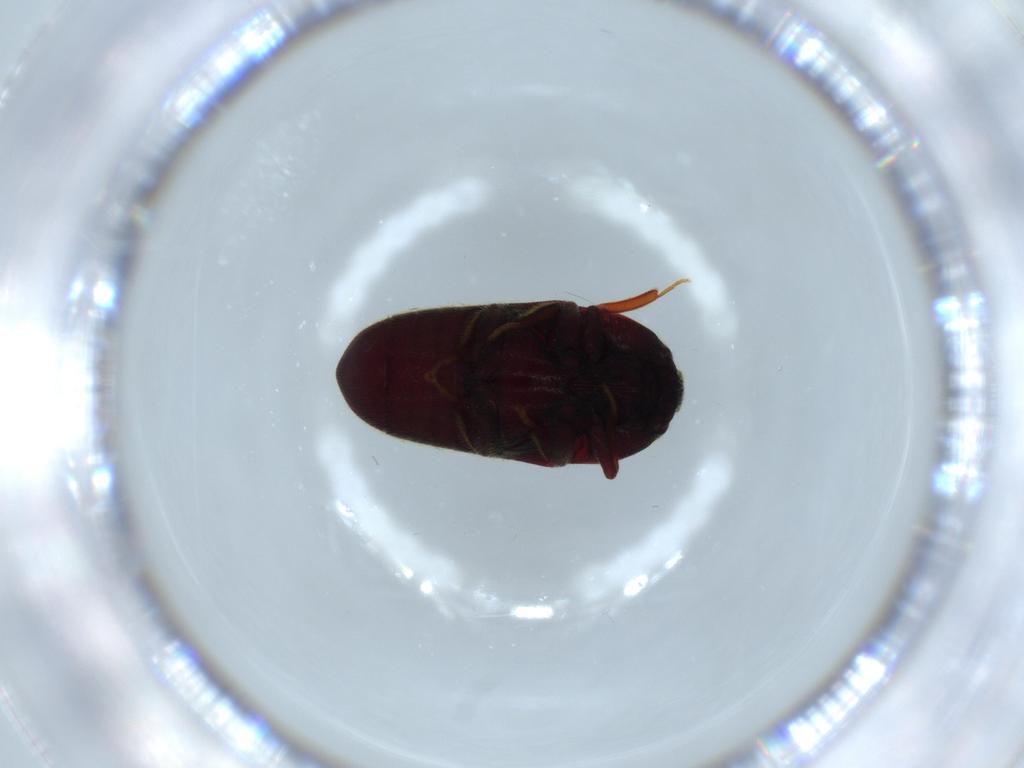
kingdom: Animalia
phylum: Arthropoda
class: Insecta
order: Coleoptera
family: Throscidae
